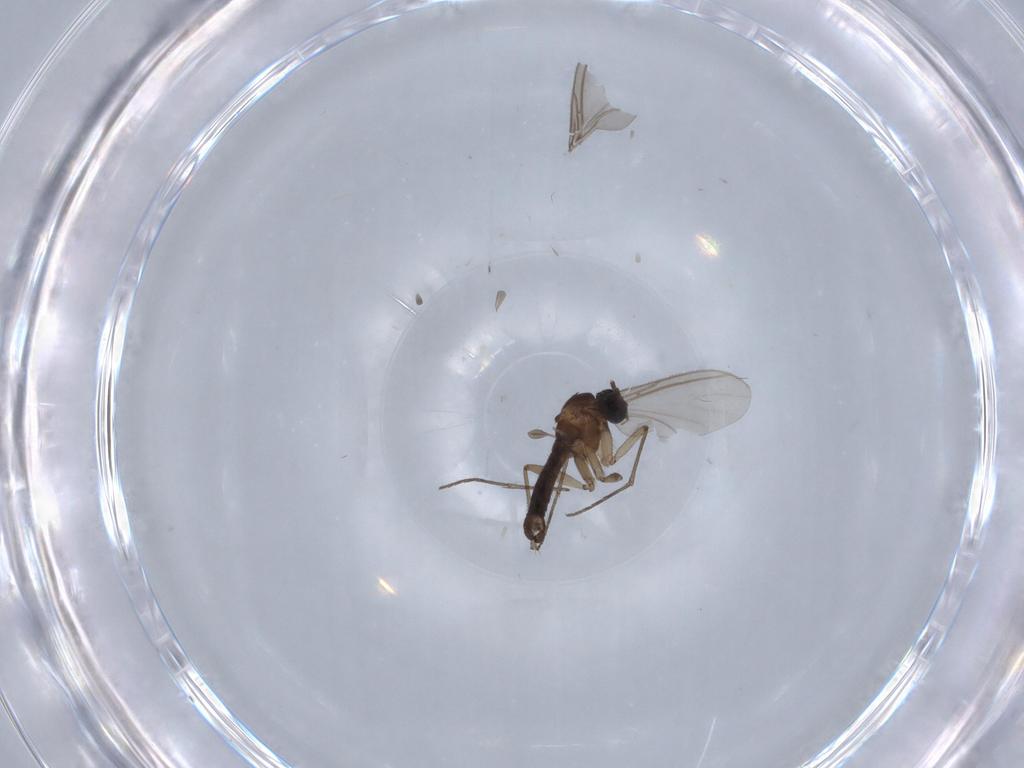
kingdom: Animalia
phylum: Arthropoda
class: Insecta
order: Diptera
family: Sciaridae
